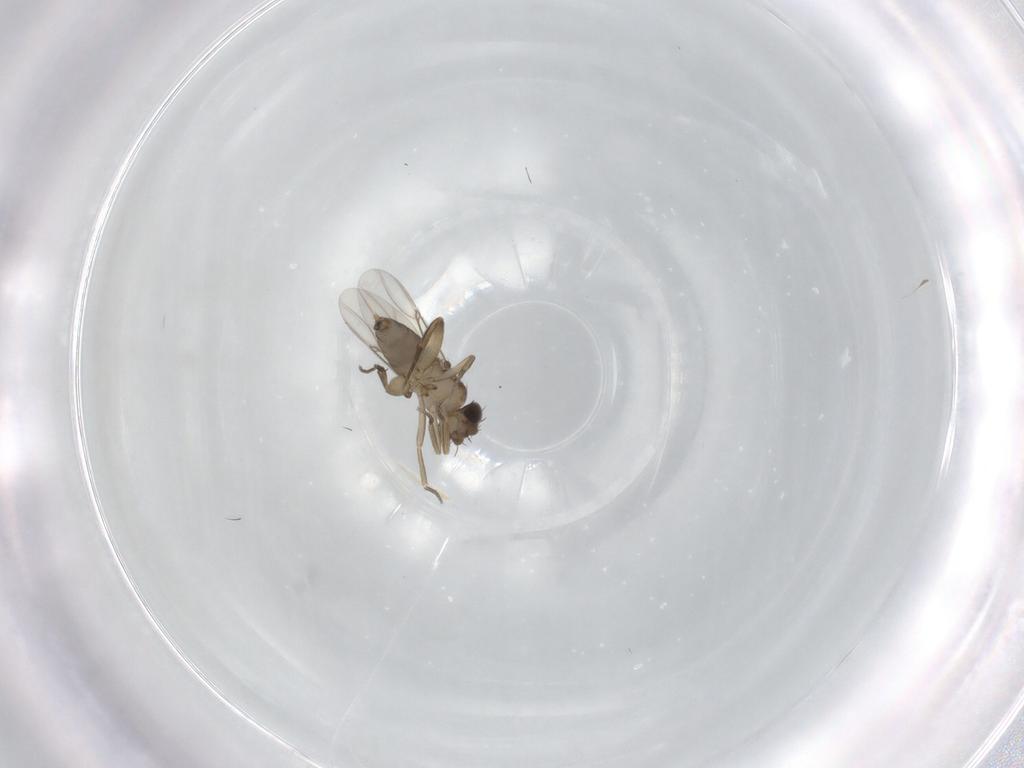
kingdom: Animalia
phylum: Arthropoda
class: Insecta
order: Diptera
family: Phoridae
